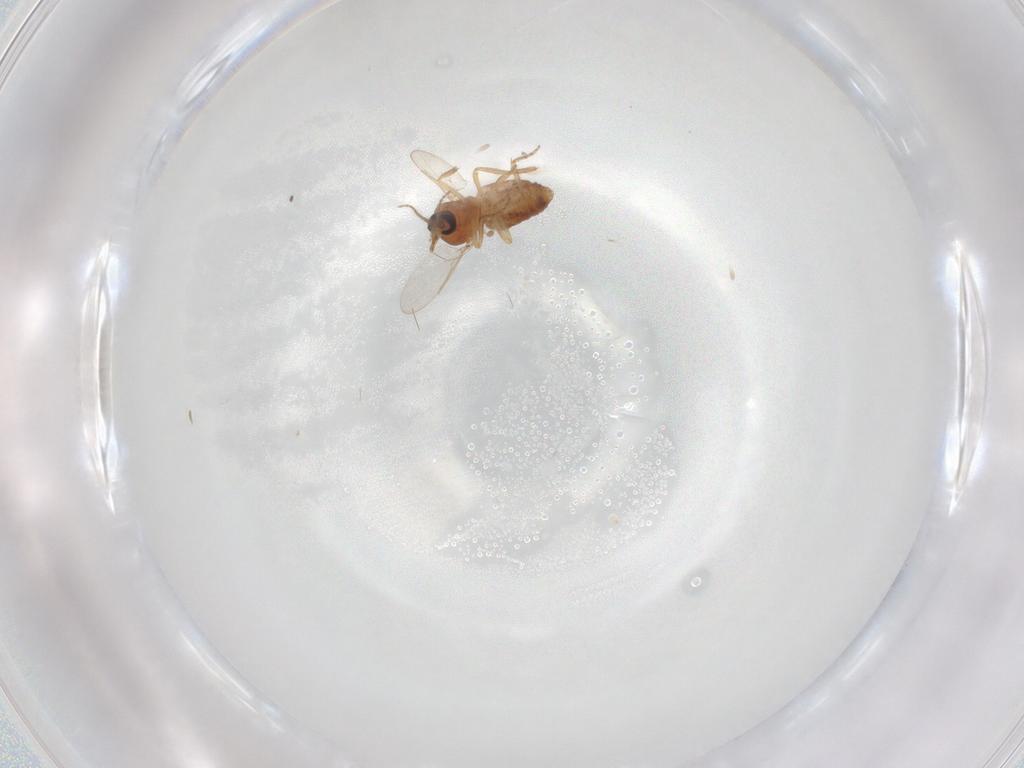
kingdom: Animalia
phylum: Arthropoda
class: Insecta
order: Diptera
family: Ceratopogonidae
